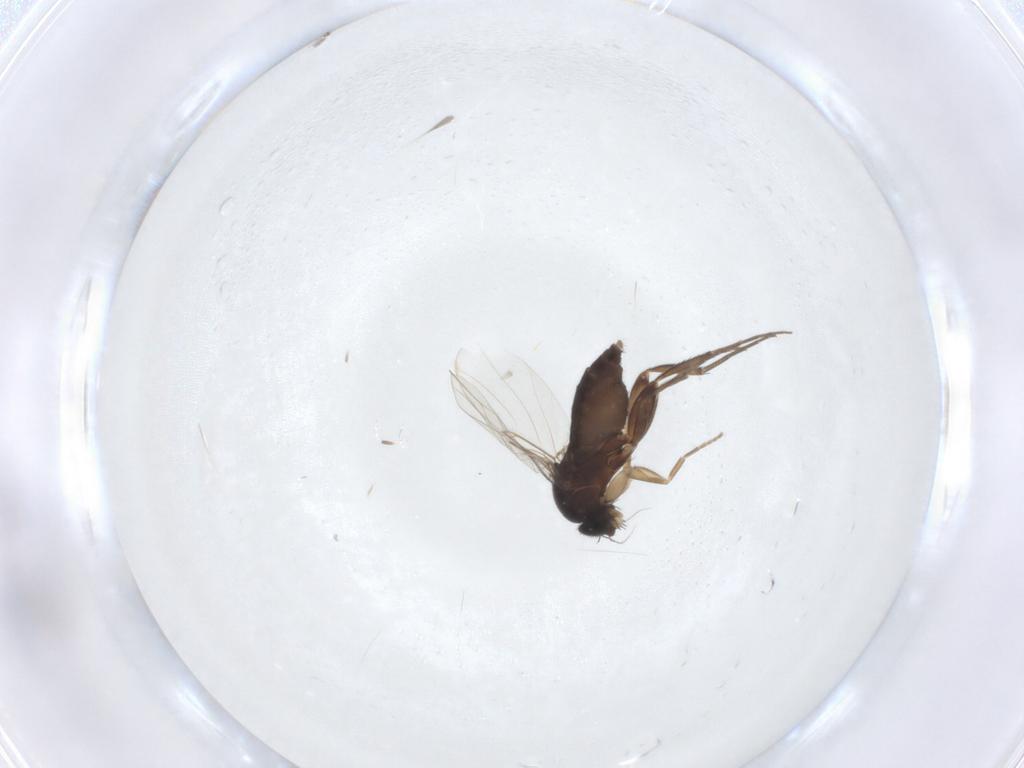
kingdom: Animalia
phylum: Arthropoda
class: Insecta
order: Diptera
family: Phoridae
